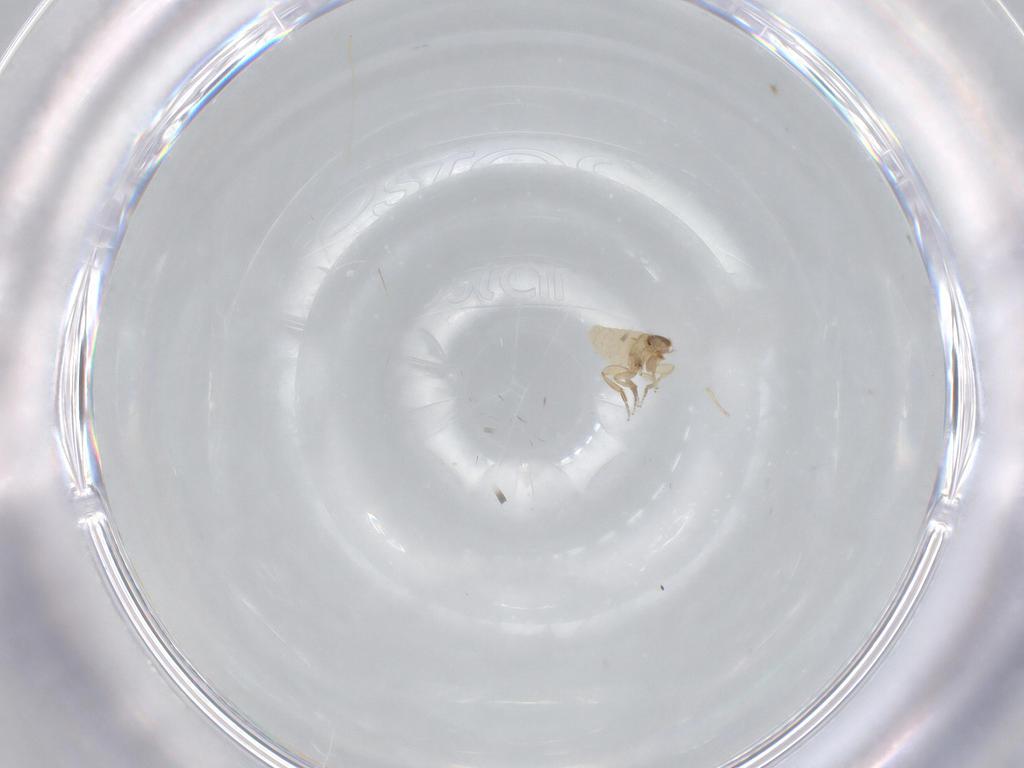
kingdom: Animalia
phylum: Arthropoda
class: Insecta
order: Diptera
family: Phoridae
